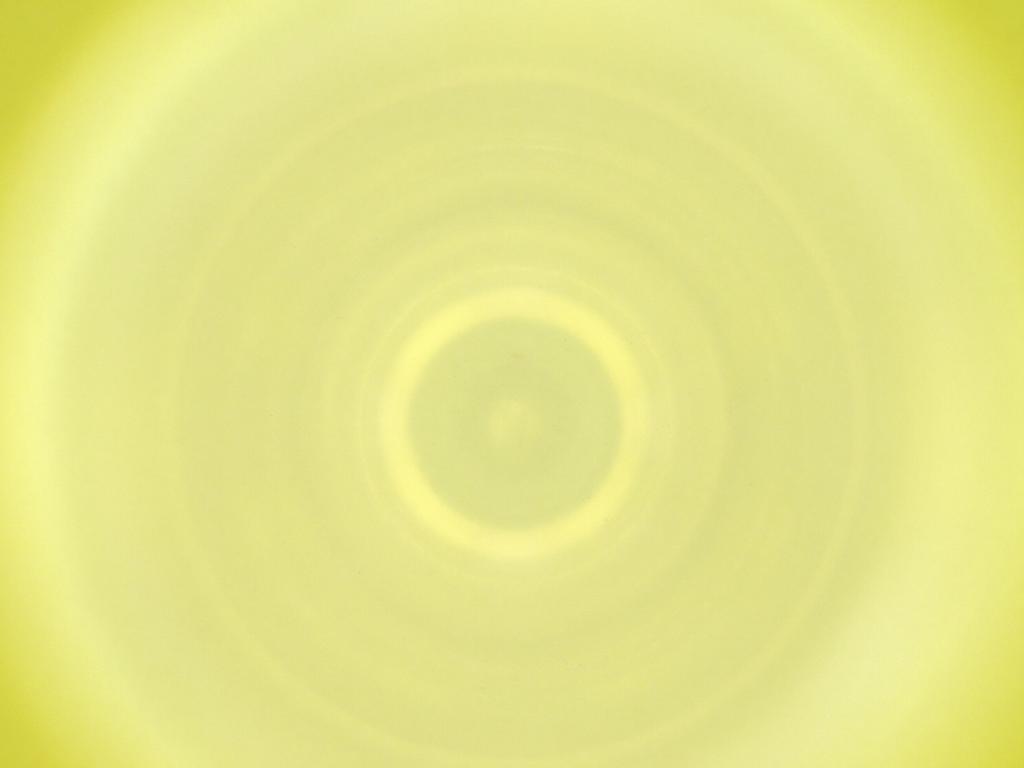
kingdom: Animalia
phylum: Arthropoda
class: Insecta
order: Diptera
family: Cecidomyiidae
